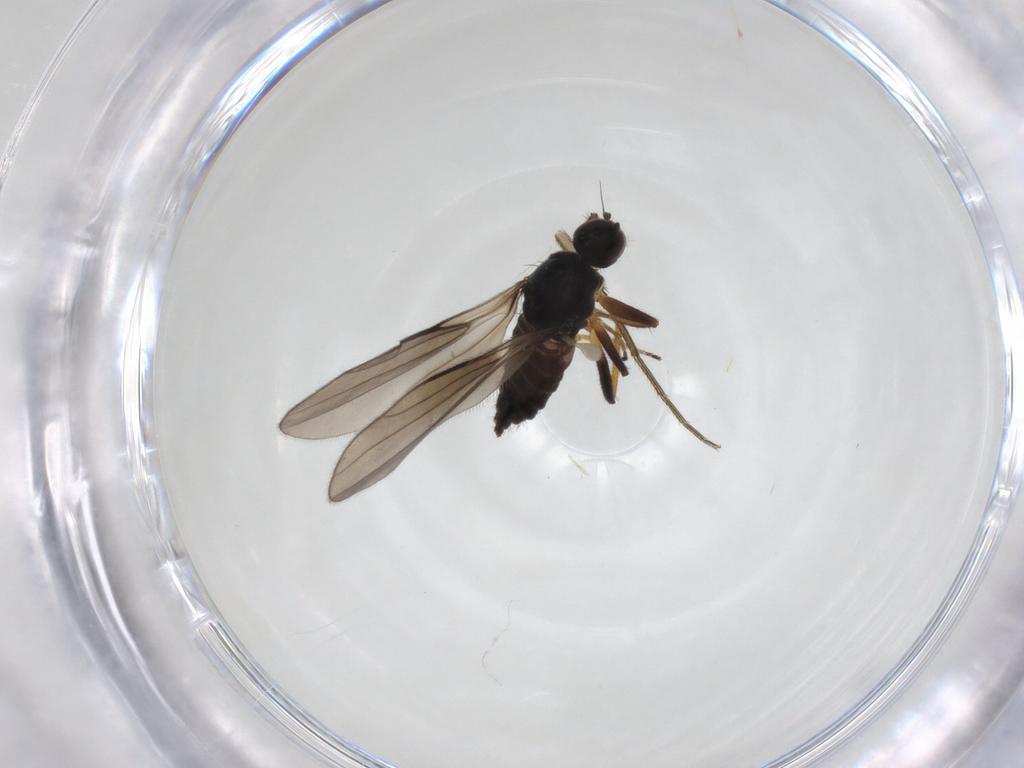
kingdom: Animalia
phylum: Arthropoda
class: Insecta
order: Diptera
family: Hybotidae
